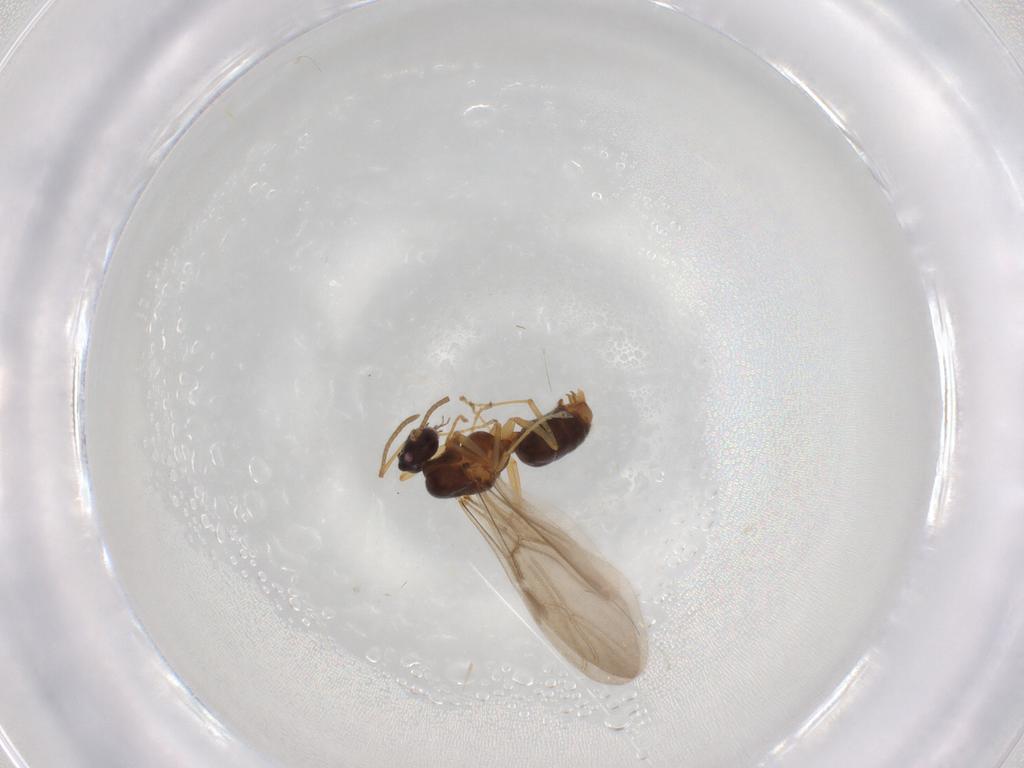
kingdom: Animalia
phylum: Arthropoda
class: Insecta
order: Hymenoptera
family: Formicidae
